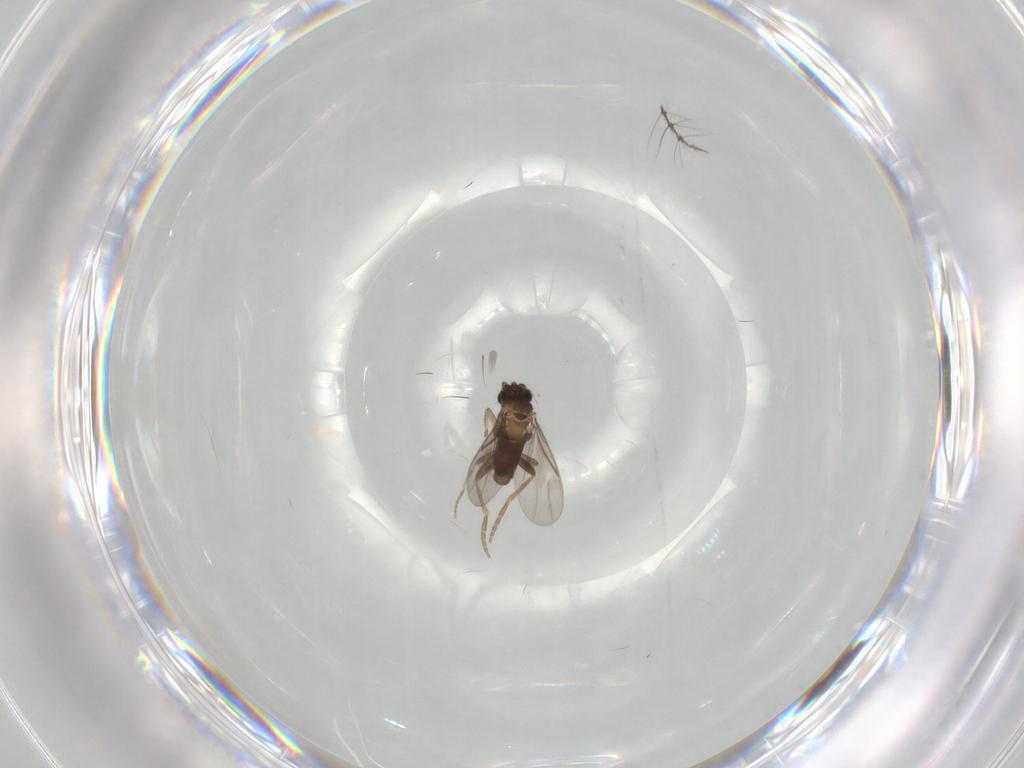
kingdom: Animalia
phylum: Arthropoda
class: Insecta
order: Diptera
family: Chironomidae
